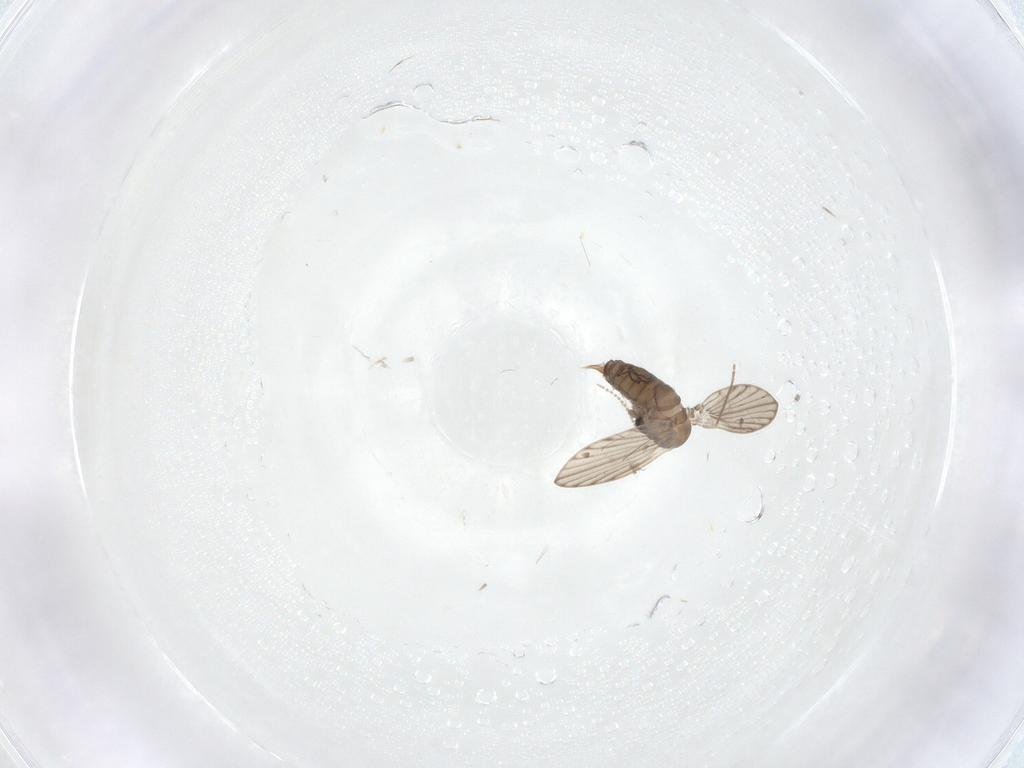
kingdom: Animalia
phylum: Arthropoda
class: Insecta
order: Diptera
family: Psychodidae
